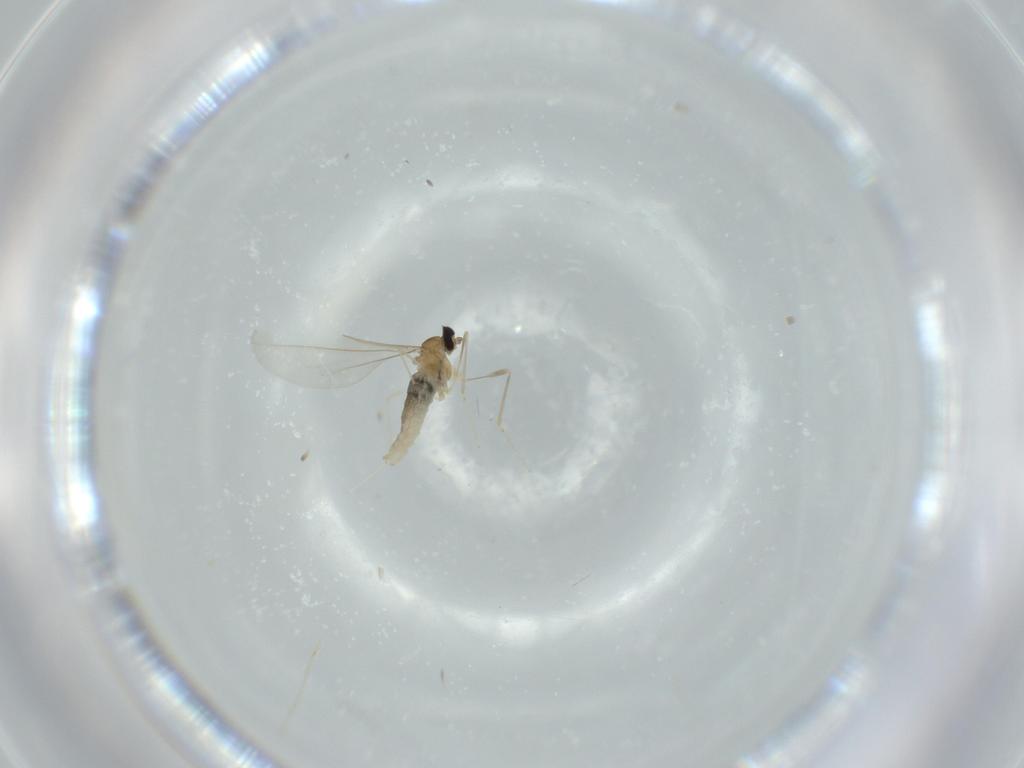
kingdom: Animalia
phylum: Arthropoda
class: Insecta
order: Diptera
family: Cecidomyiidae
